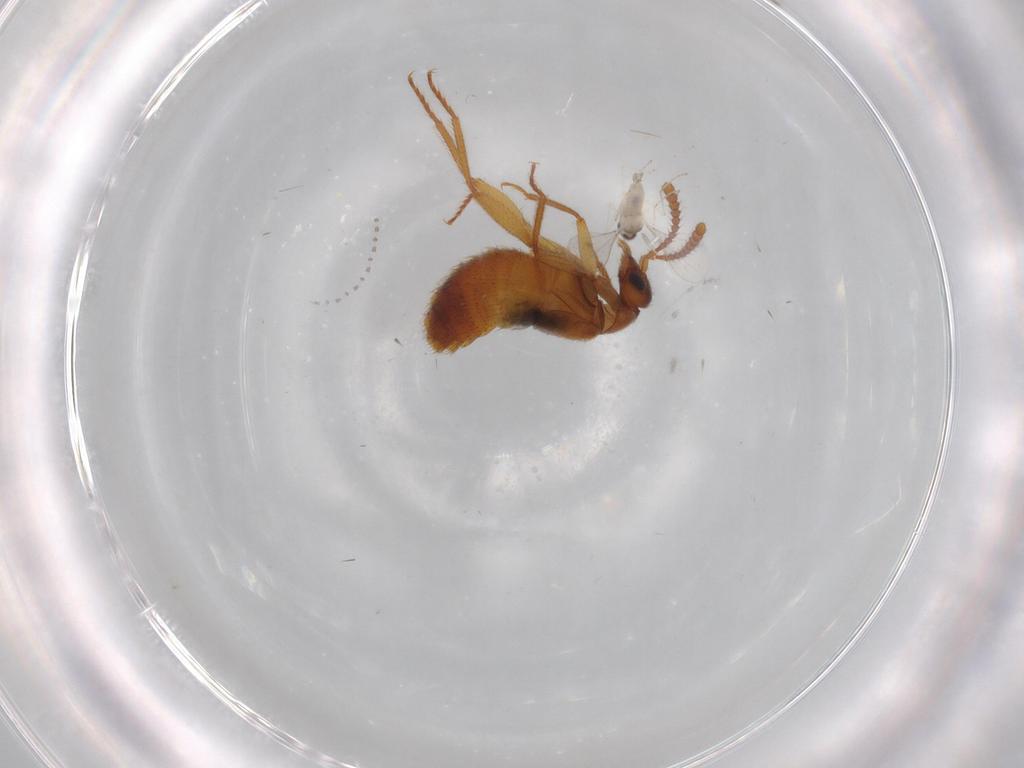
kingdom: Animalia
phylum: Arthropoda
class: Insecta
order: Diptera
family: Cecidomyiidae
